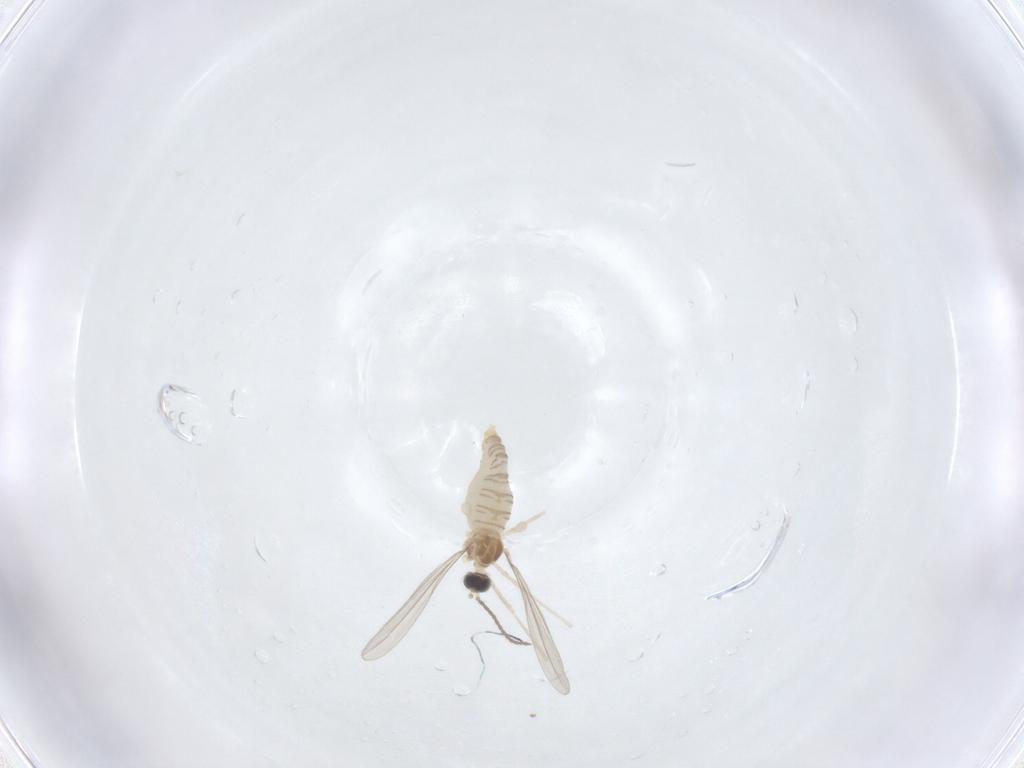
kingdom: Animalia
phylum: Arthropoda
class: Insecta
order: Diptera
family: Cecidomyiidae
